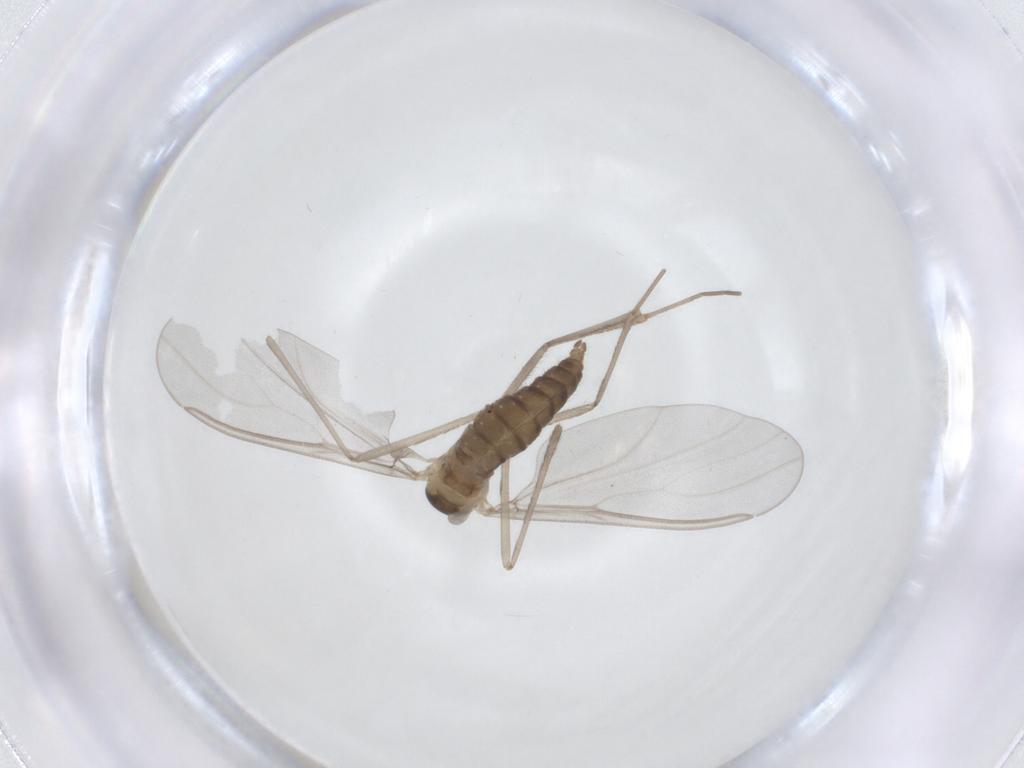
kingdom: Animalia
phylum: Arthropoda
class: Insecta
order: Diptera
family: Cecidomyiidae
